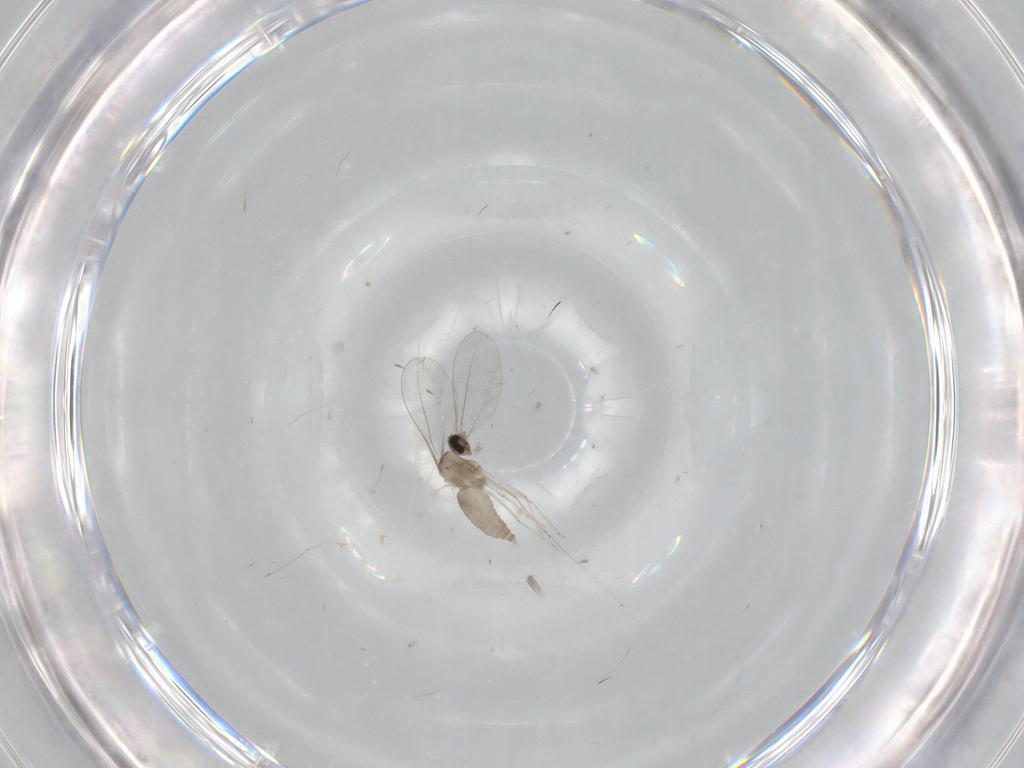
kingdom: Animalia
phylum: Arthropoda
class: Insecta
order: Diptera
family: Cecidomyiidae
